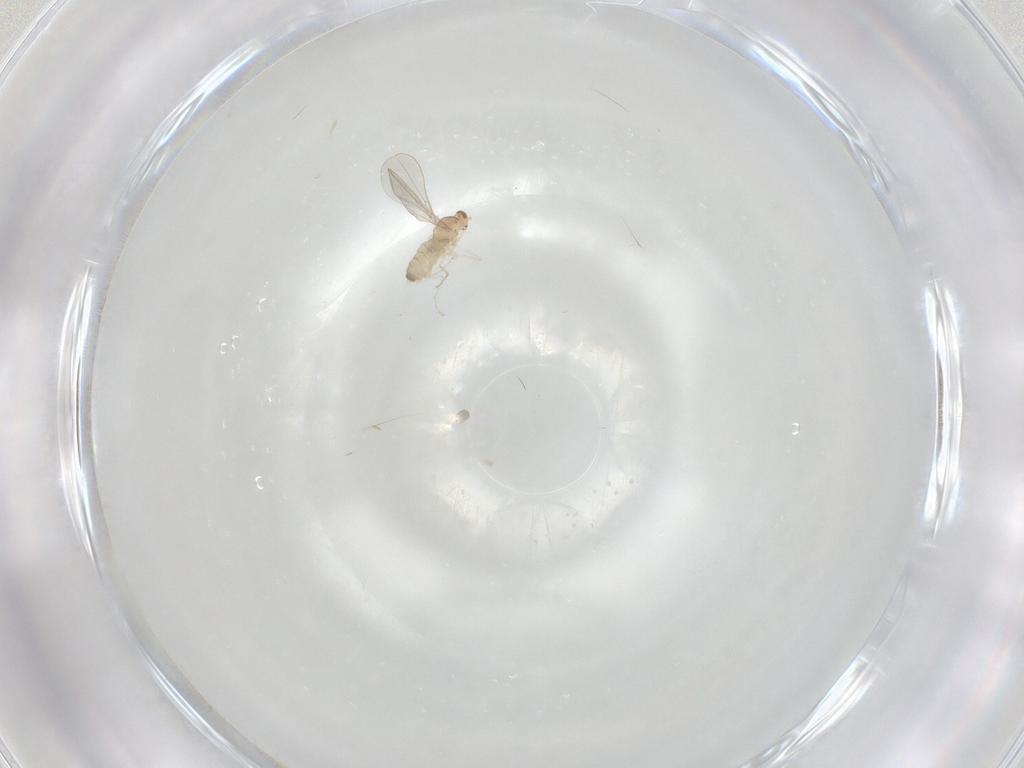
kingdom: Animalia
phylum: Arthropoda
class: Insecta
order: Diptera
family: Cecidomyiidae
